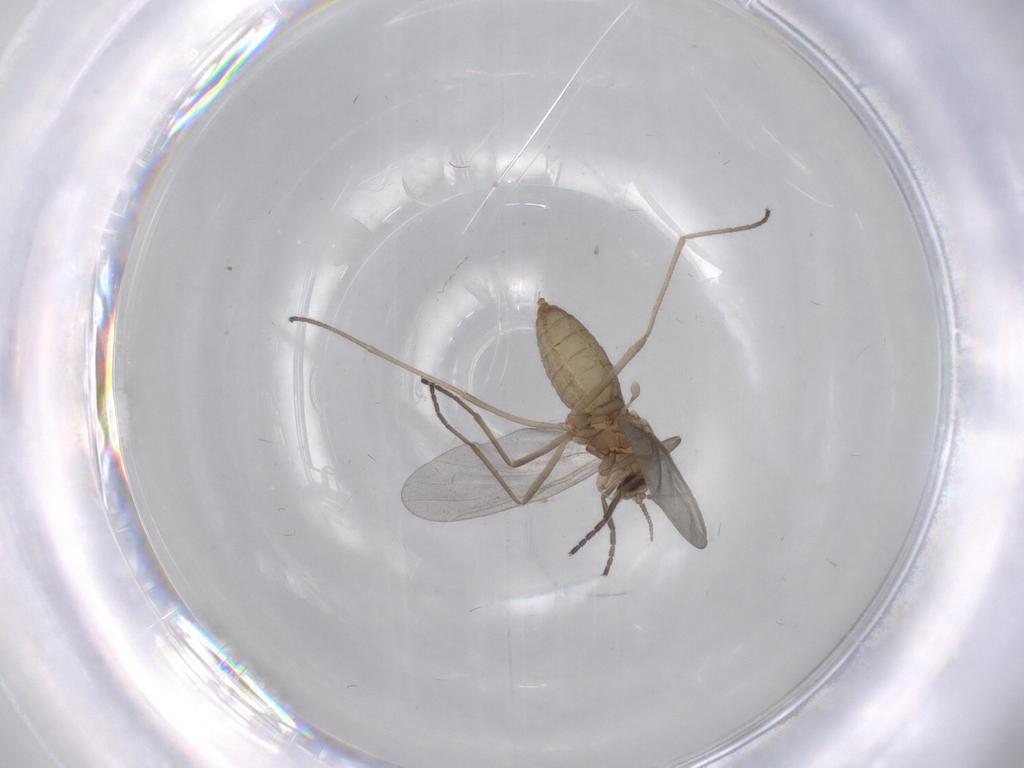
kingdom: Animalia
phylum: Arthropoda
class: Insecta
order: Diptera
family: Cecidomyiidae
